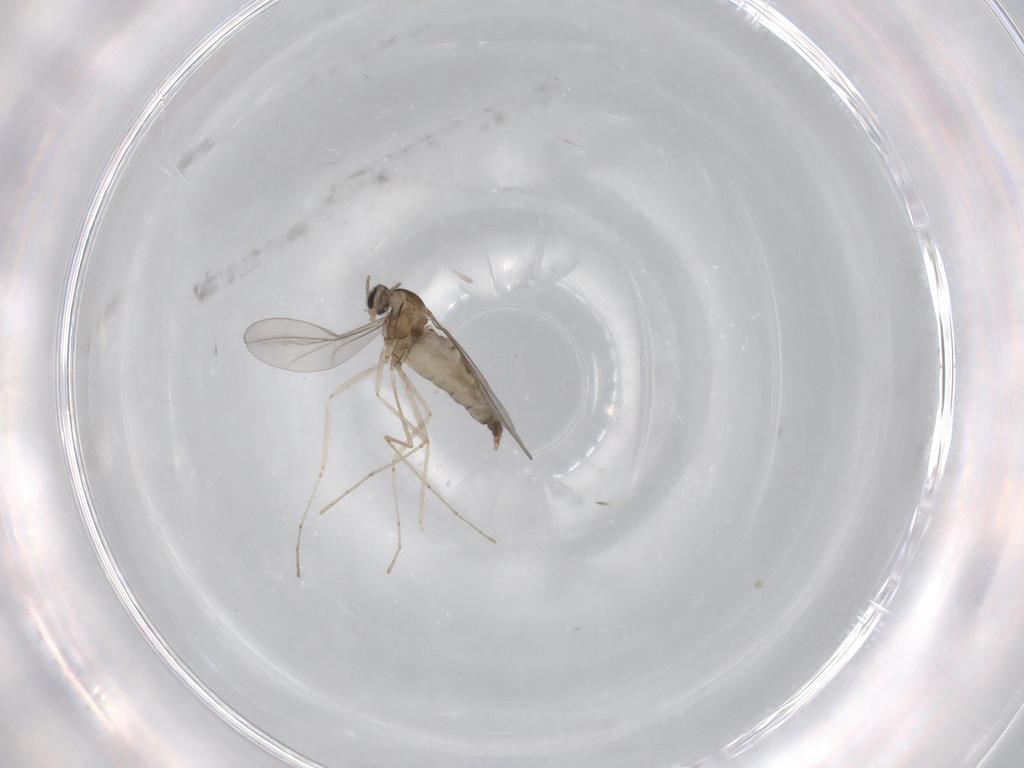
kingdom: Animalia
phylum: Arthropoda
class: Insecta
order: Diptera
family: Cecidomyiidae
